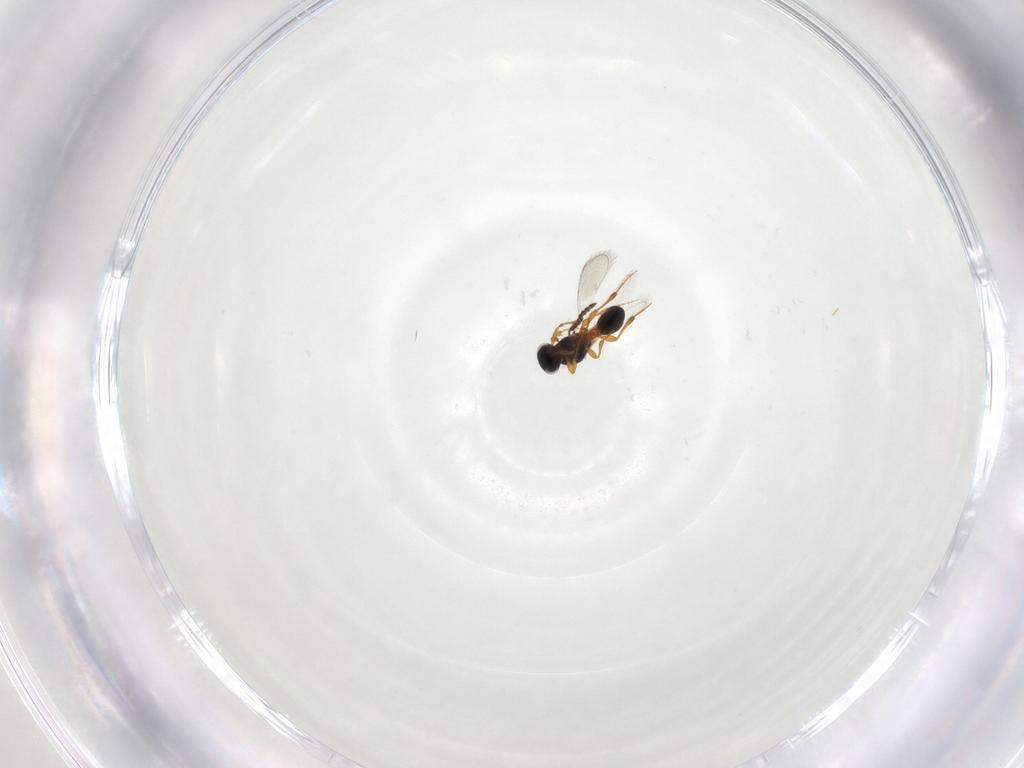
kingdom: Animalia
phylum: Arthropoda
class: Insecta
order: Hymenoptera
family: Platygastridae
